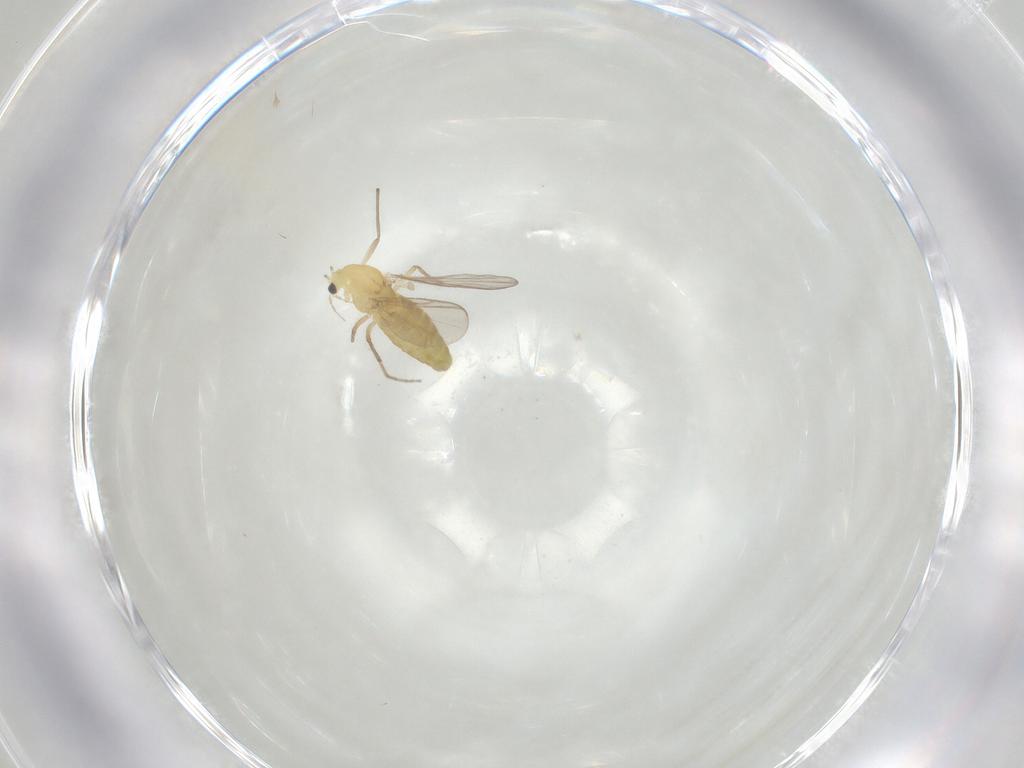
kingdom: Animalia
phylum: Arthropoda
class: Insecta
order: Diptera
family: Chironomidae
